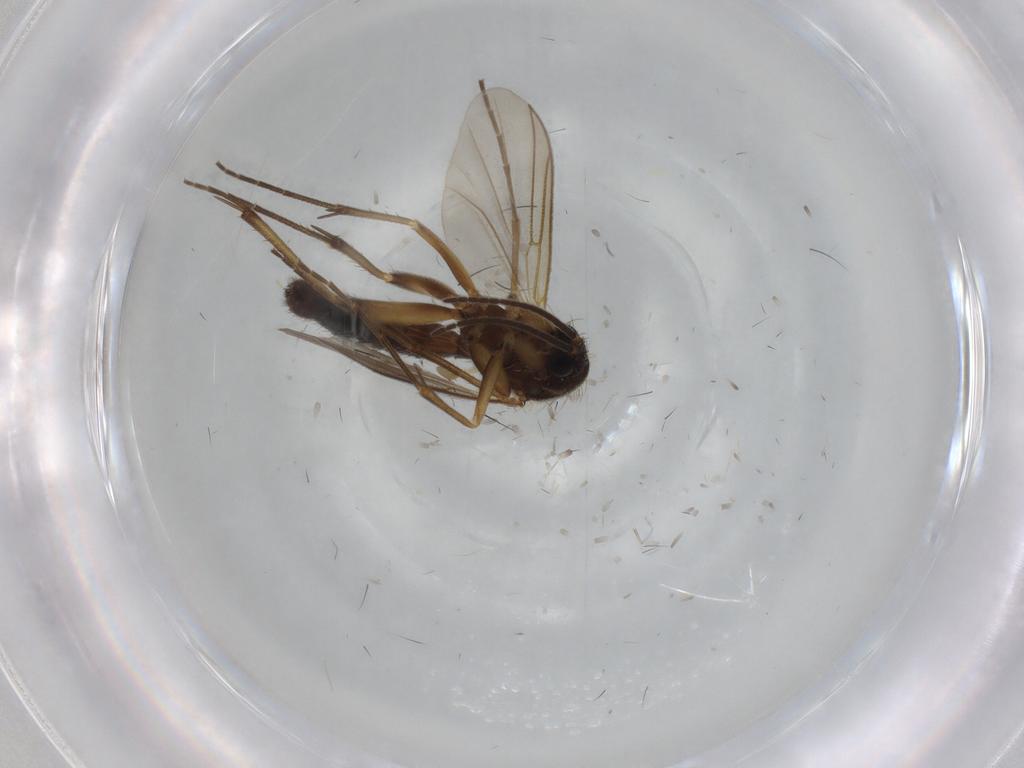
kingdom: Animalia
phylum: Arthropoda
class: Insecta
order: Diptera
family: Mycetophilidae
